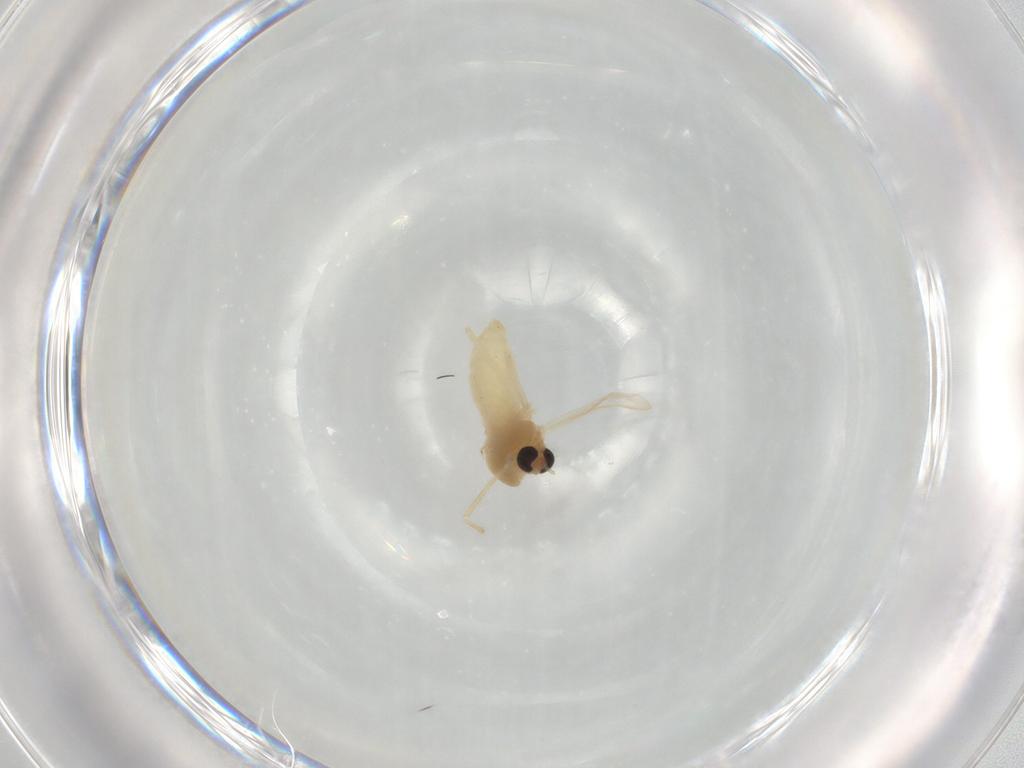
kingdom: Animalia
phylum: Arthropoda
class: Insecta
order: Diptera
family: Chironomidae
